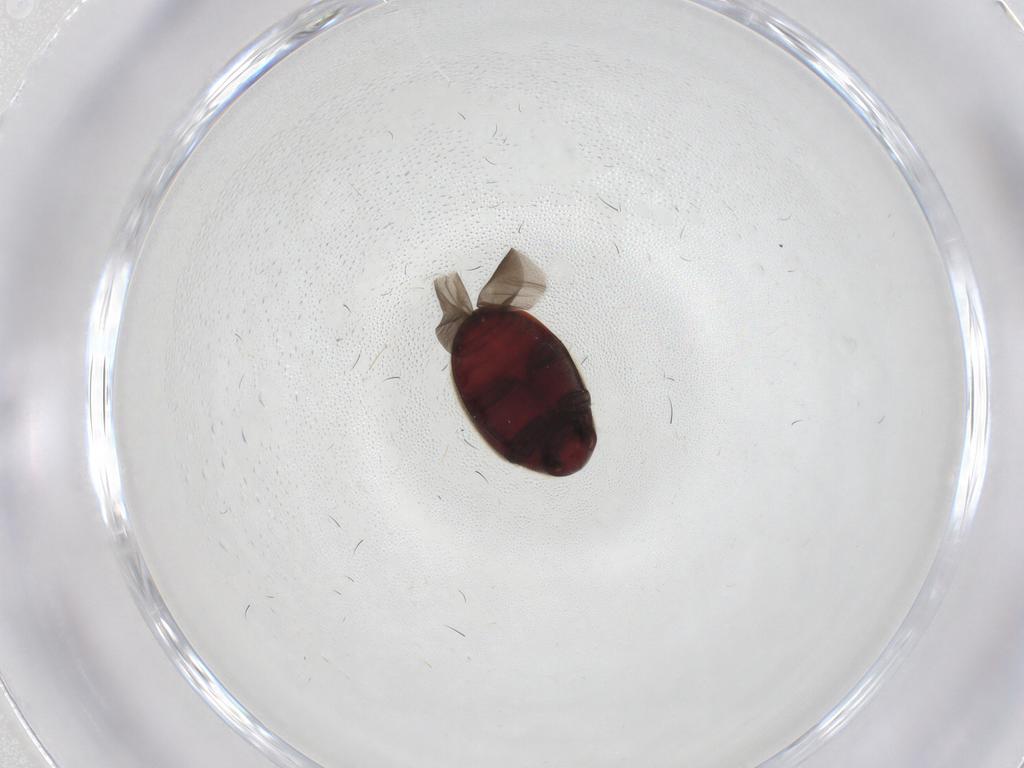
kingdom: Animalia
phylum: Arthropoda
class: Insecta
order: Coleoptera
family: Ptinidae
